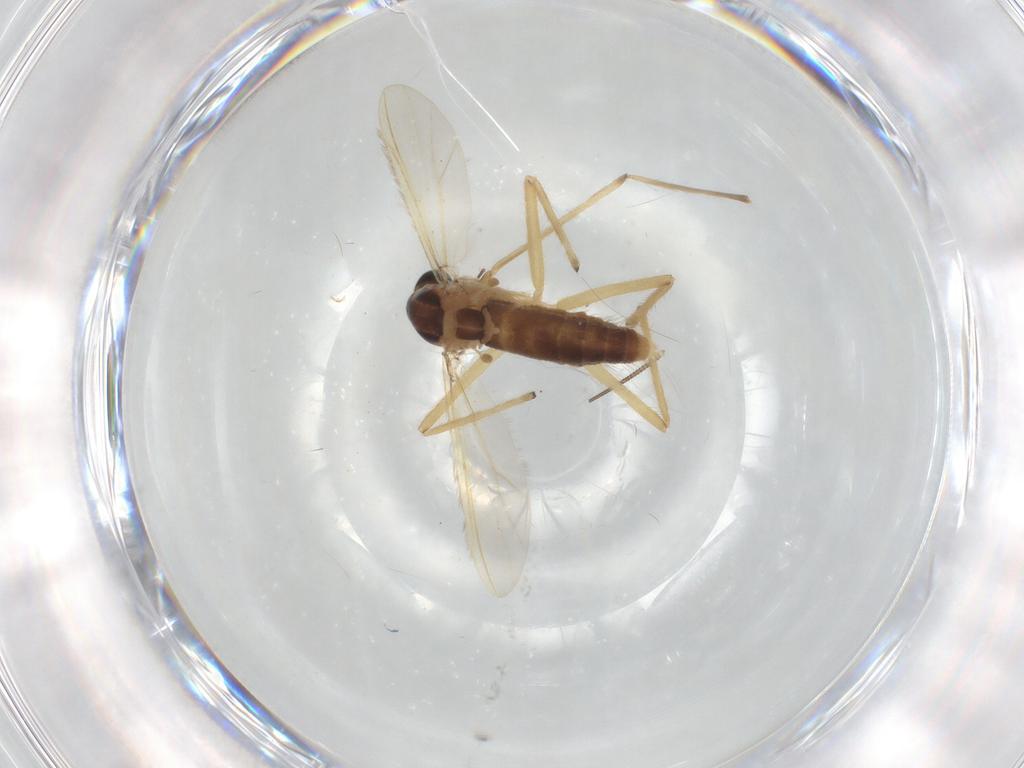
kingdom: Animalia
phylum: Arthropoda
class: Insecta
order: Diptera
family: Chironomidae
